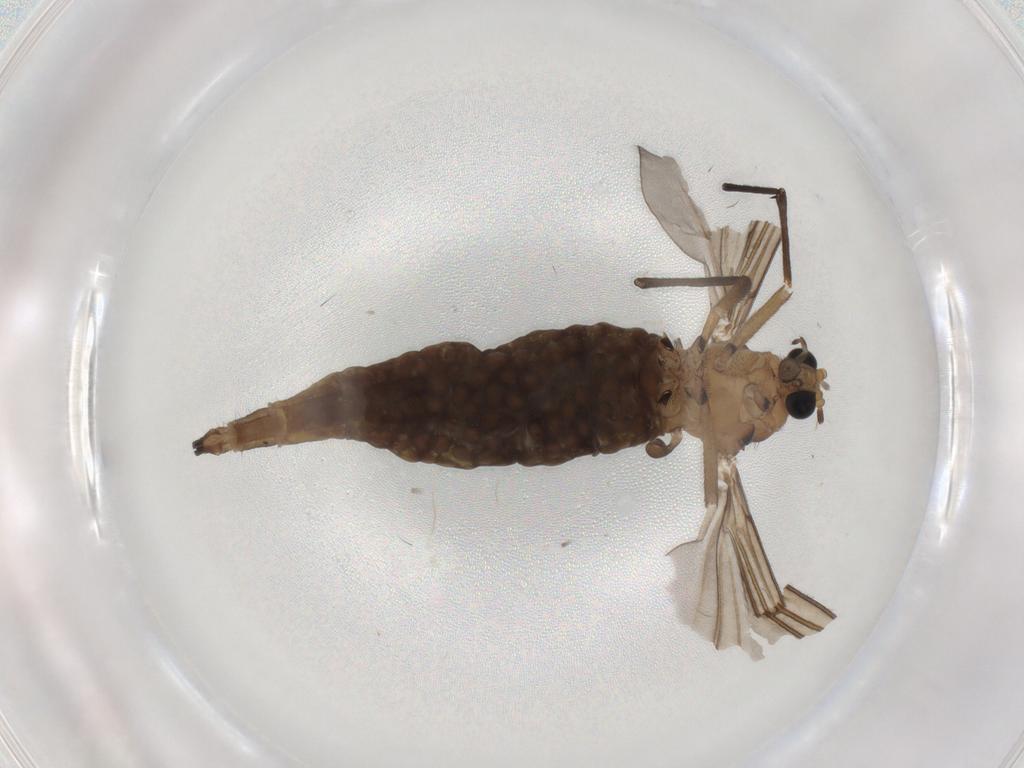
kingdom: Animalia
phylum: Arthropoda
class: Insecta
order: Diptera
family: Sciaridae
